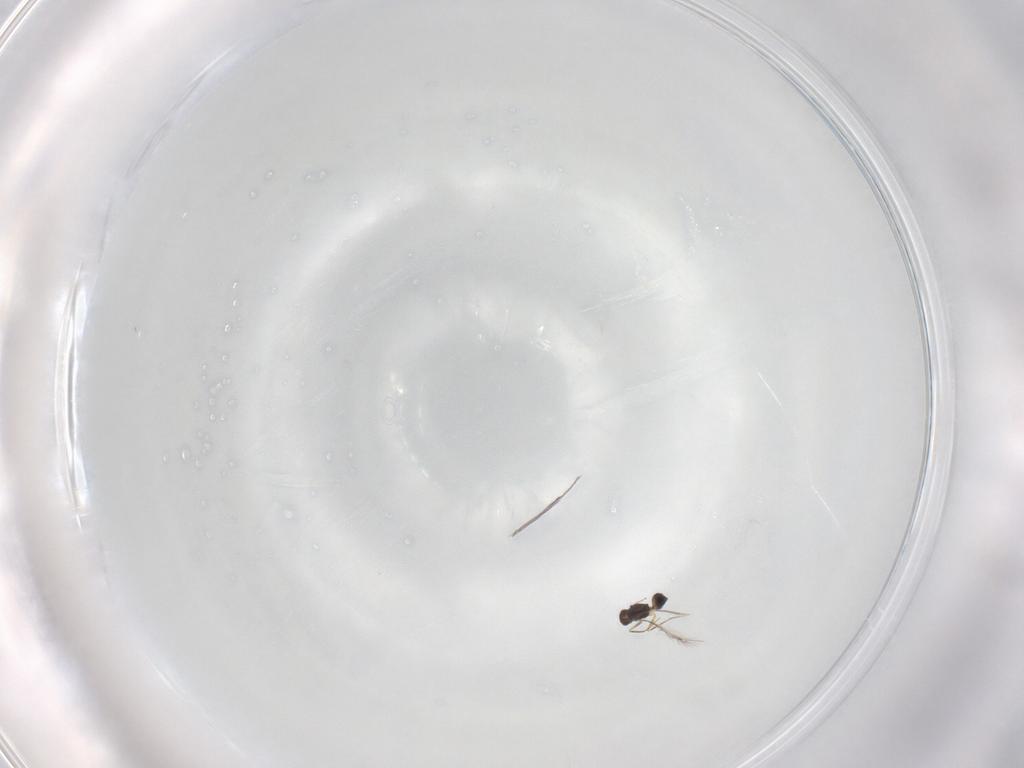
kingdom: Animalia
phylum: Arthropoda
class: Insecta
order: Hymenoptera
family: Mymaridae
